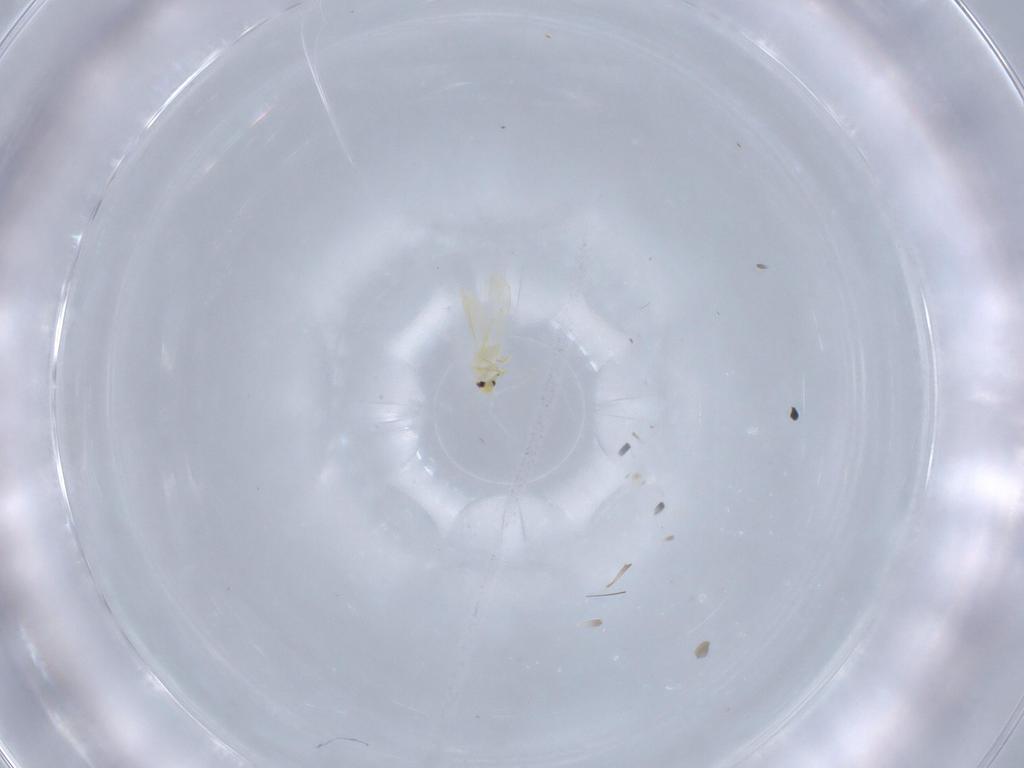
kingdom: Animalia
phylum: Arthropoda
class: Insecta
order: Hemiptera
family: Aleyrodidae
